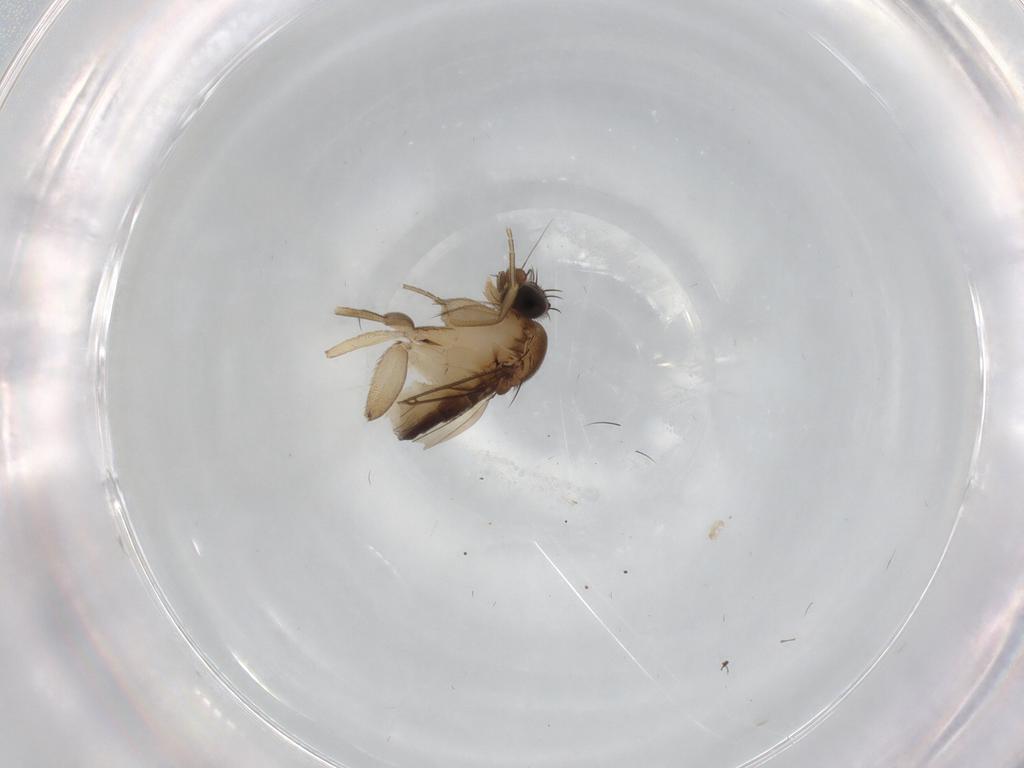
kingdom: Animalia
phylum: Arthropoda
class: Insecta
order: Diptera
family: Phoridae
